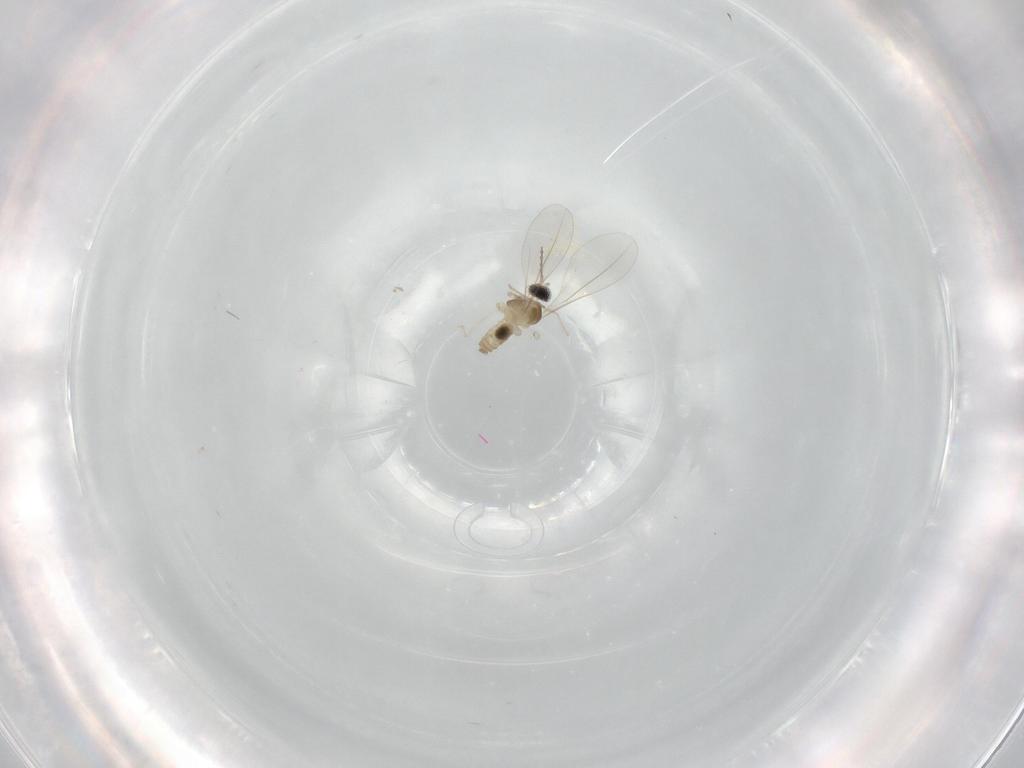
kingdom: Animalia
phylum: Arthropoda
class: Insecta
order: Diptera
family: Cecidomyiidae
